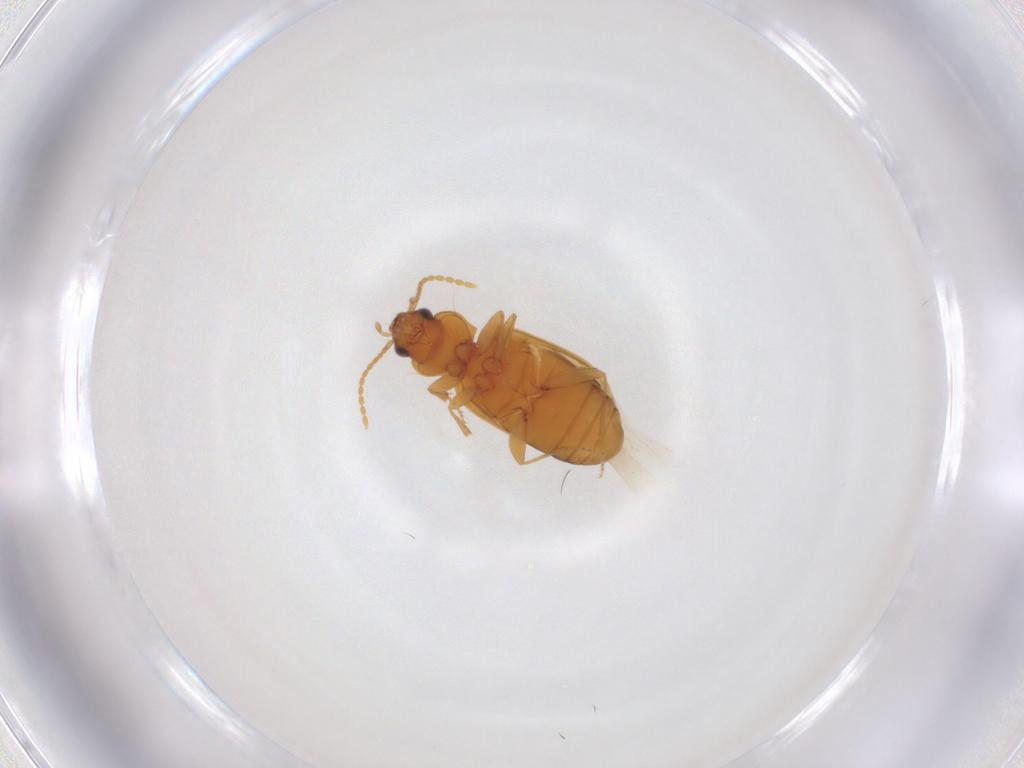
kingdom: Animalia
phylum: Arthropoda
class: Insecta
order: Coleoptera
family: Carabidae
